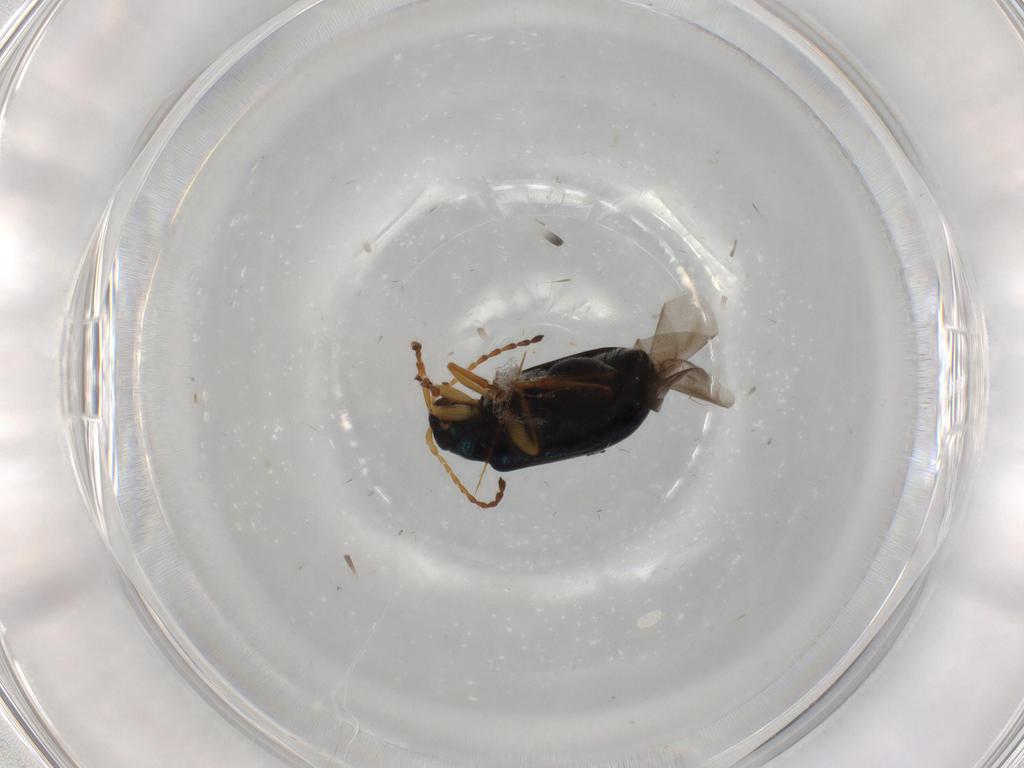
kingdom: Animalia
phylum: Arthropoda
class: Insecta
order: Coleoptera
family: Melandryidae
